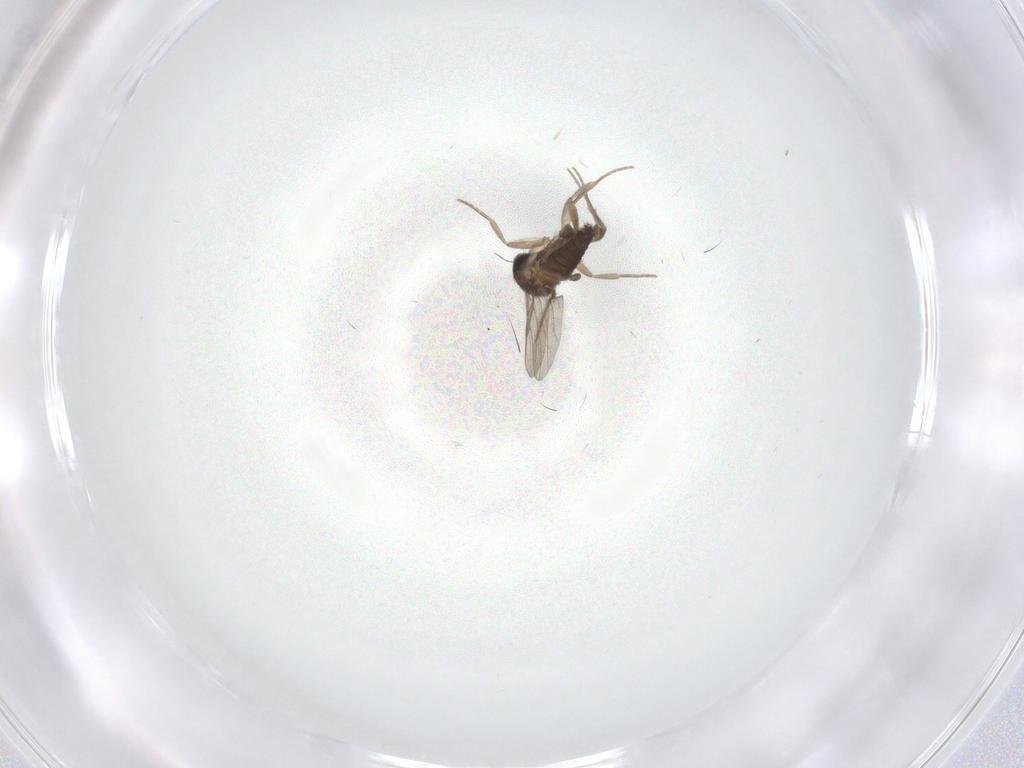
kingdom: Animalia
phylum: Arthropoda
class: Insecta
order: Diptera
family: Cecidomyiidae
